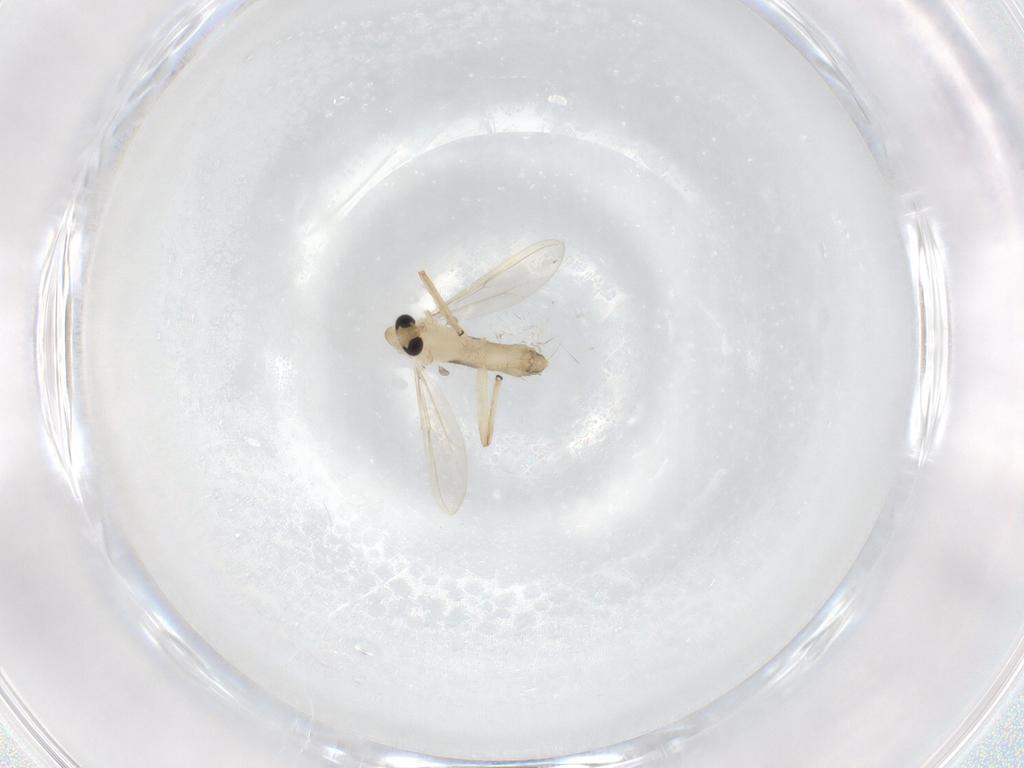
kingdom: Animalia
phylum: Arthropoda
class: Insecta
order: Diptera
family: Chironomidae
